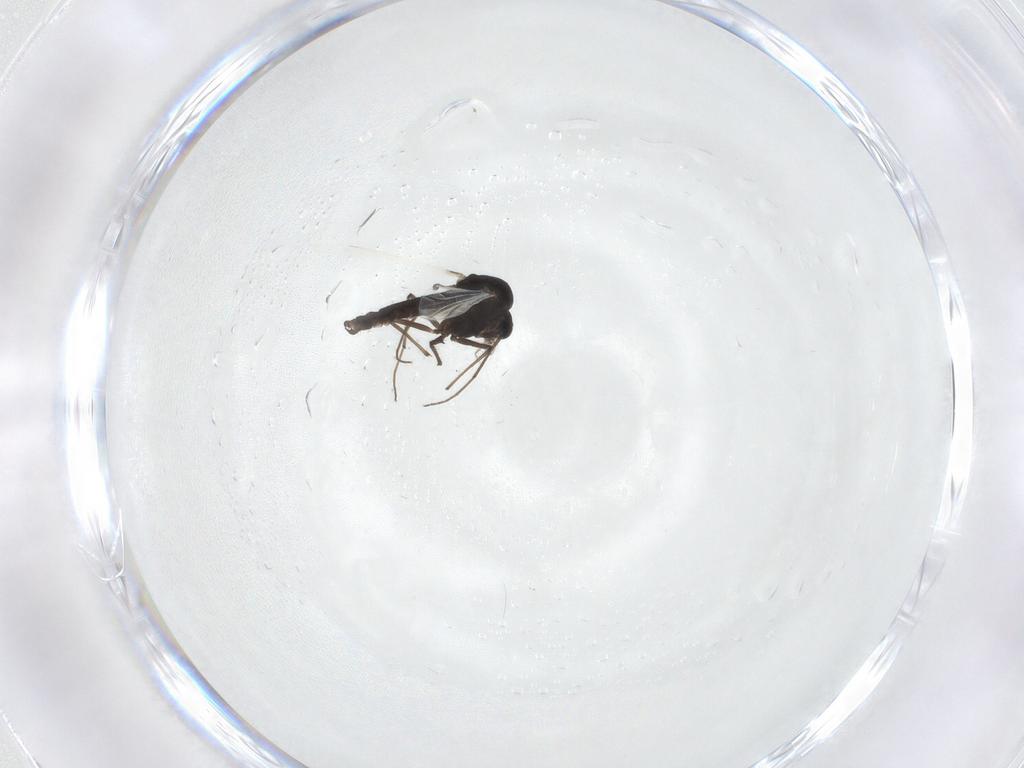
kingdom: Animalia
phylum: Arthropoda
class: Insecta
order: Diptera
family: Chironomidae
